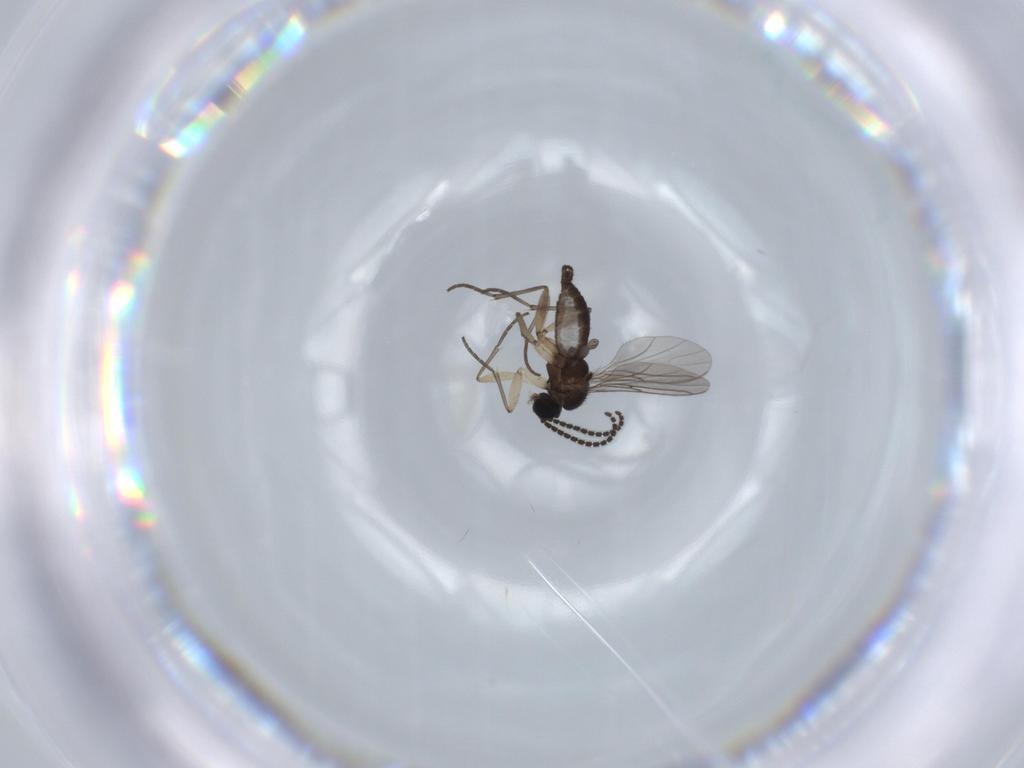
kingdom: Animalia
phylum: Arthropoda
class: Insecta
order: Diptera
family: Sciaridae
